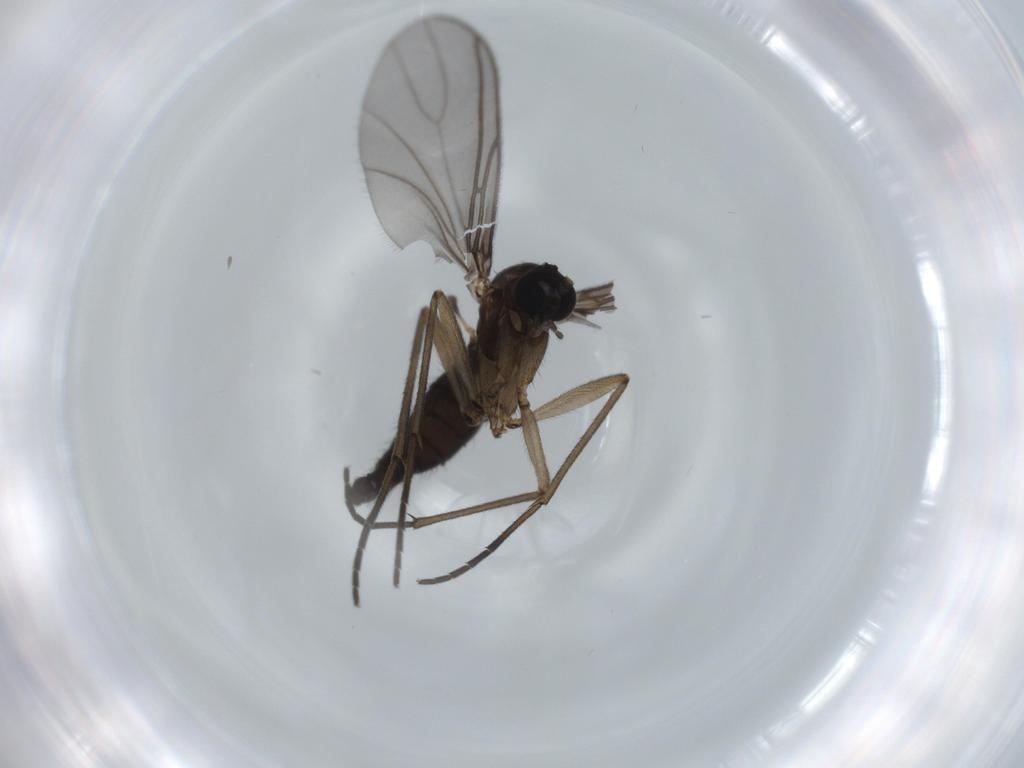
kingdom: Animalia
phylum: Arthropoda
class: Insecta
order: Diptera
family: Sciaridae
